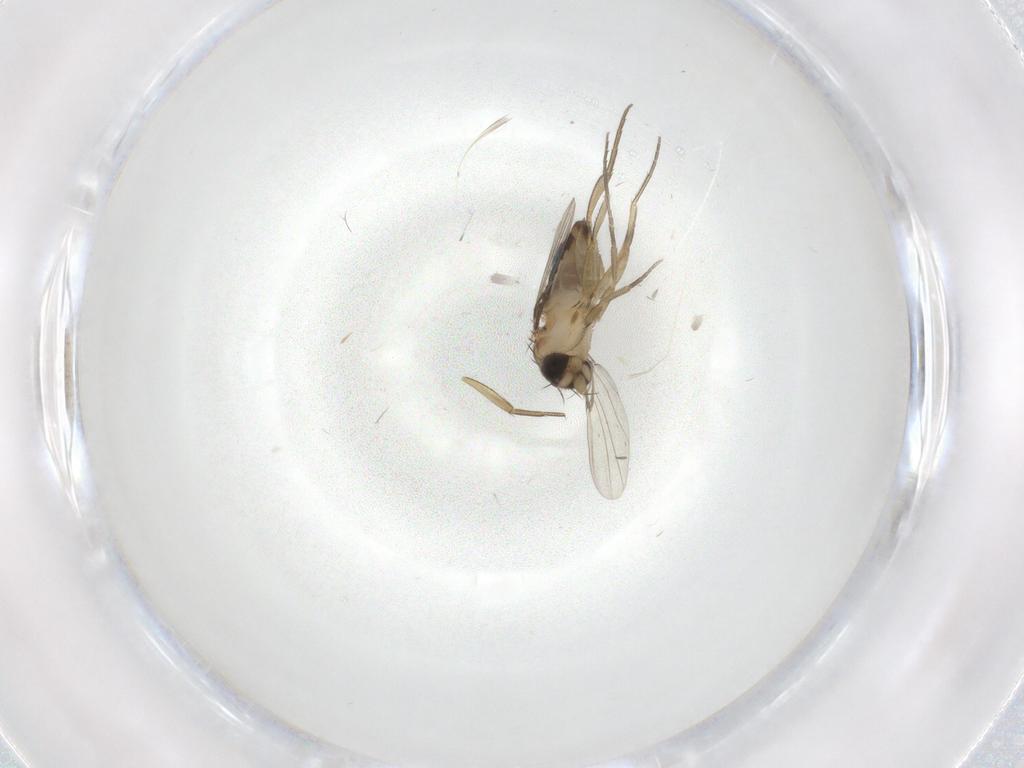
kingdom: Animalia
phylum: Arthropoda
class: Insecta
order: Diptera
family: Phoridae
